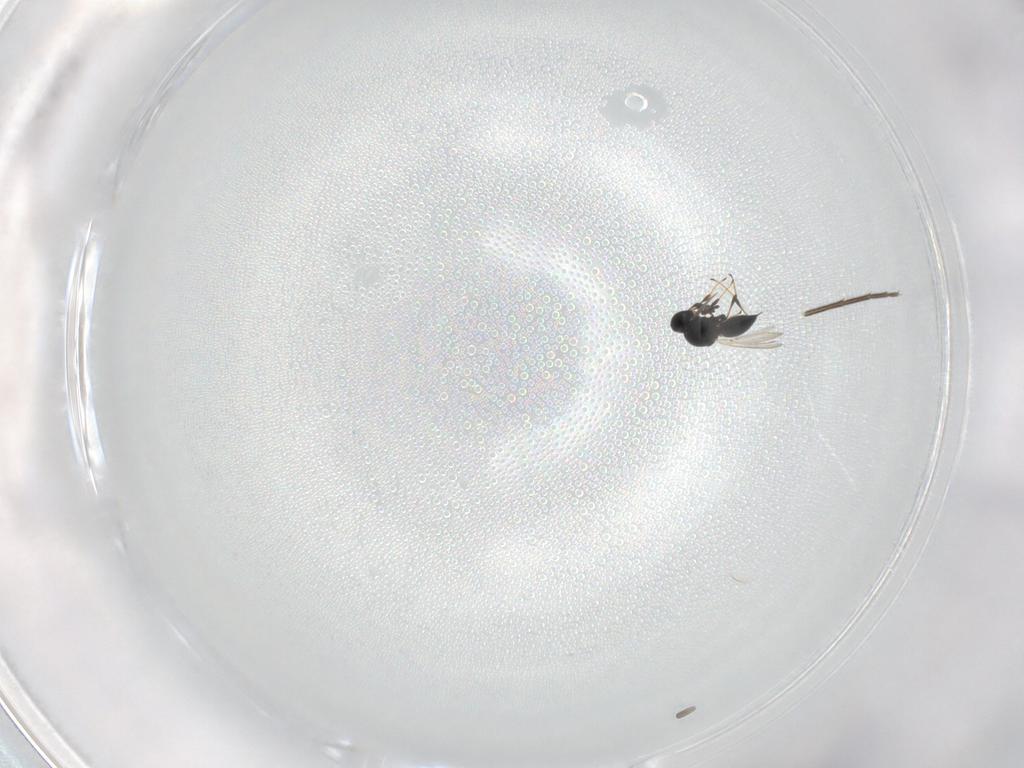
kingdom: Animalia
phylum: Arthropoda
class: Insecta
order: Hymenoptera
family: Platygastridae
